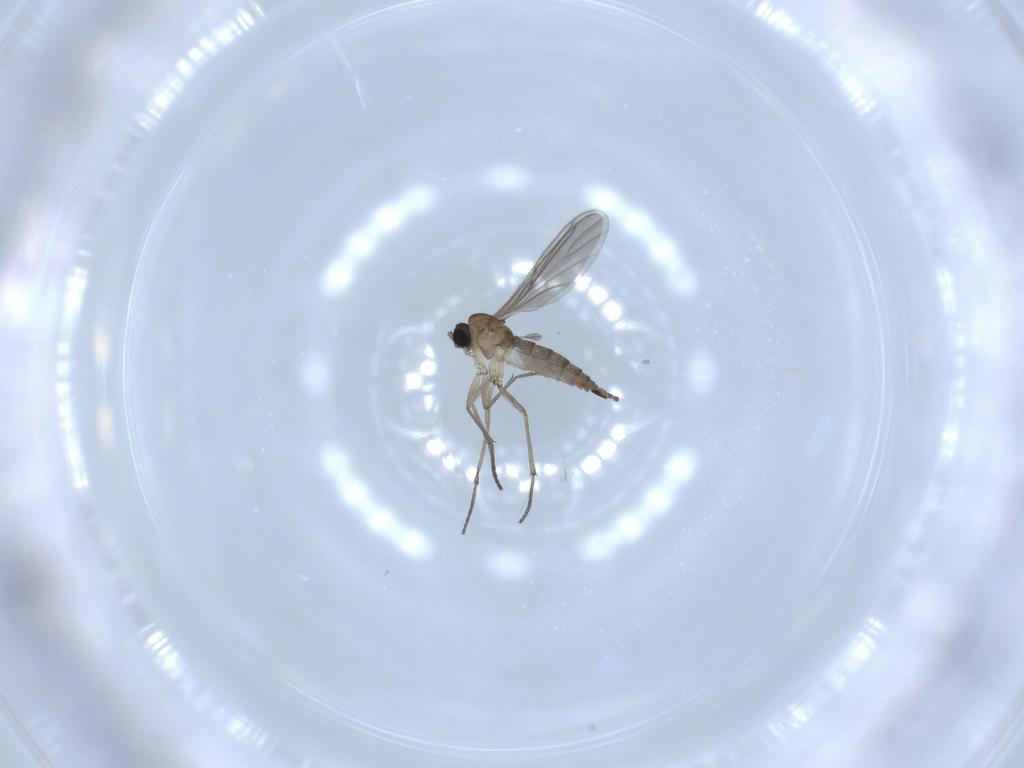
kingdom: Animalia
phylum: Arthropoda
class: Insecta
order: Diptera
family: Sciaridae
